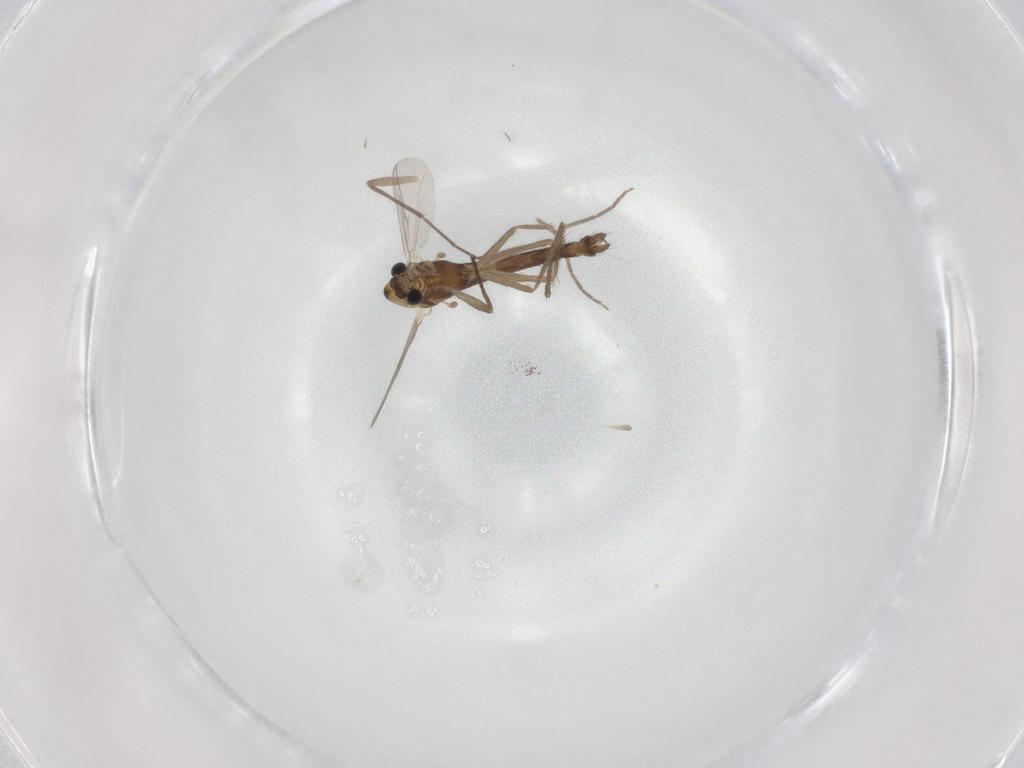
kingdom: Animalia
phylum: Arthropoda
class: Insecta
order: Diptera
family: Chironomidae
